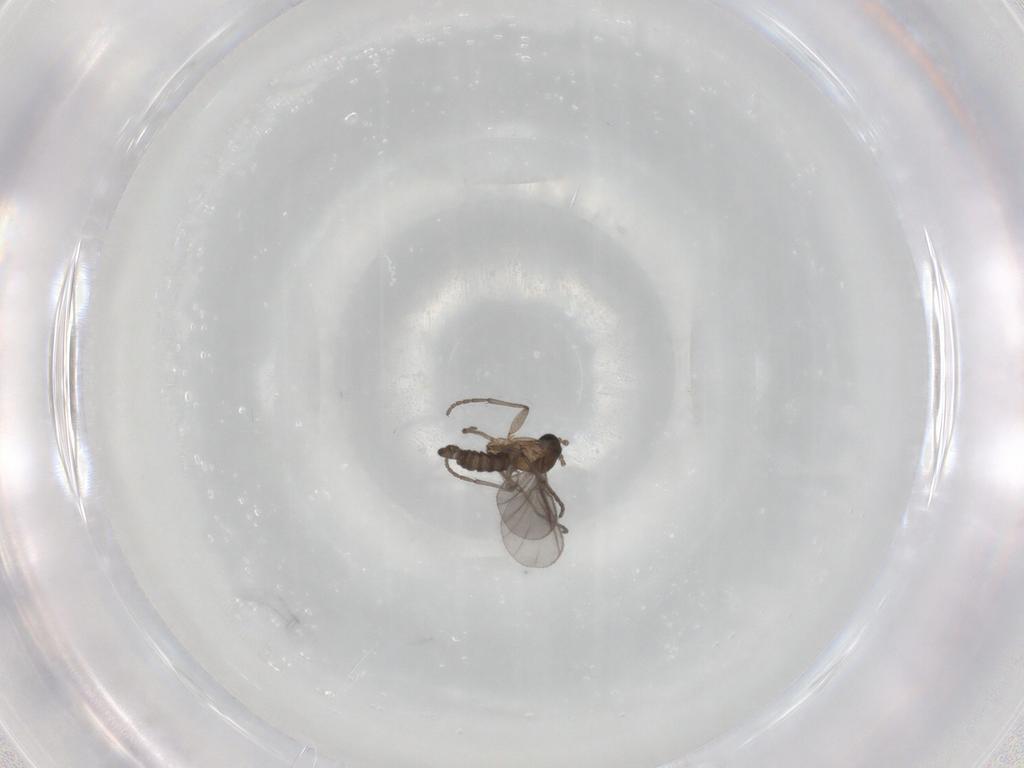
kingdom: Animalia
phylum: Arthropoda
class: Insecta
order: Diptera
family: Sciaridae
